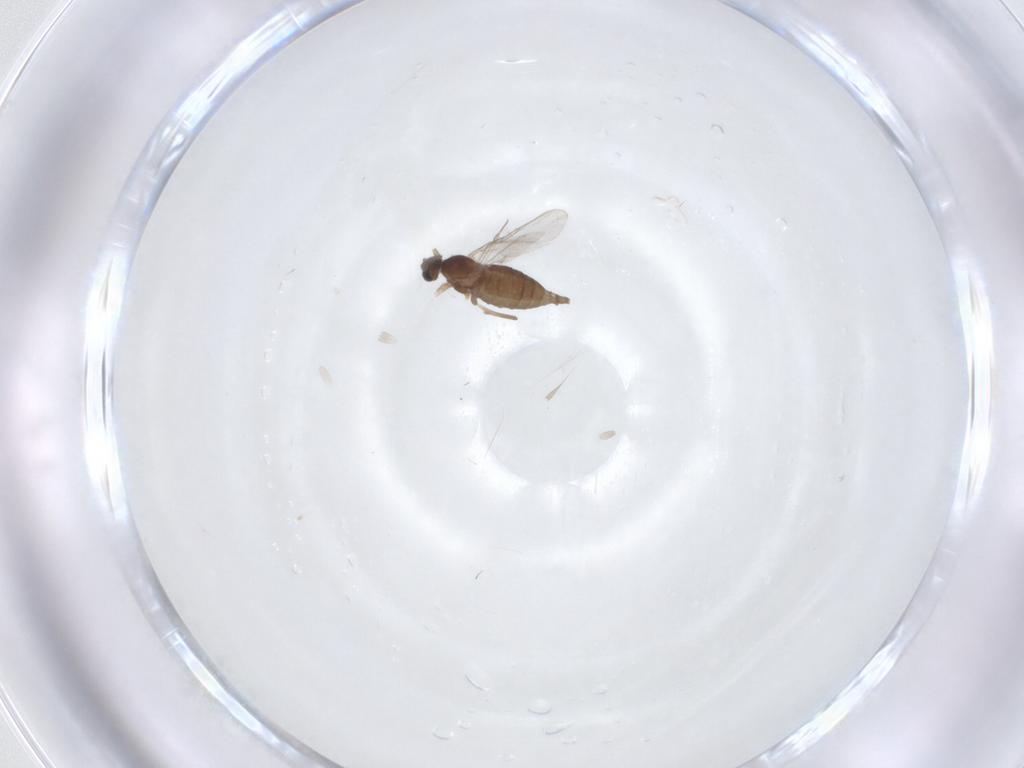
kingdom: Animalia
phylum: Arthropoda
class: Insecta
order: Diptera
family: Cecidomyiidae
